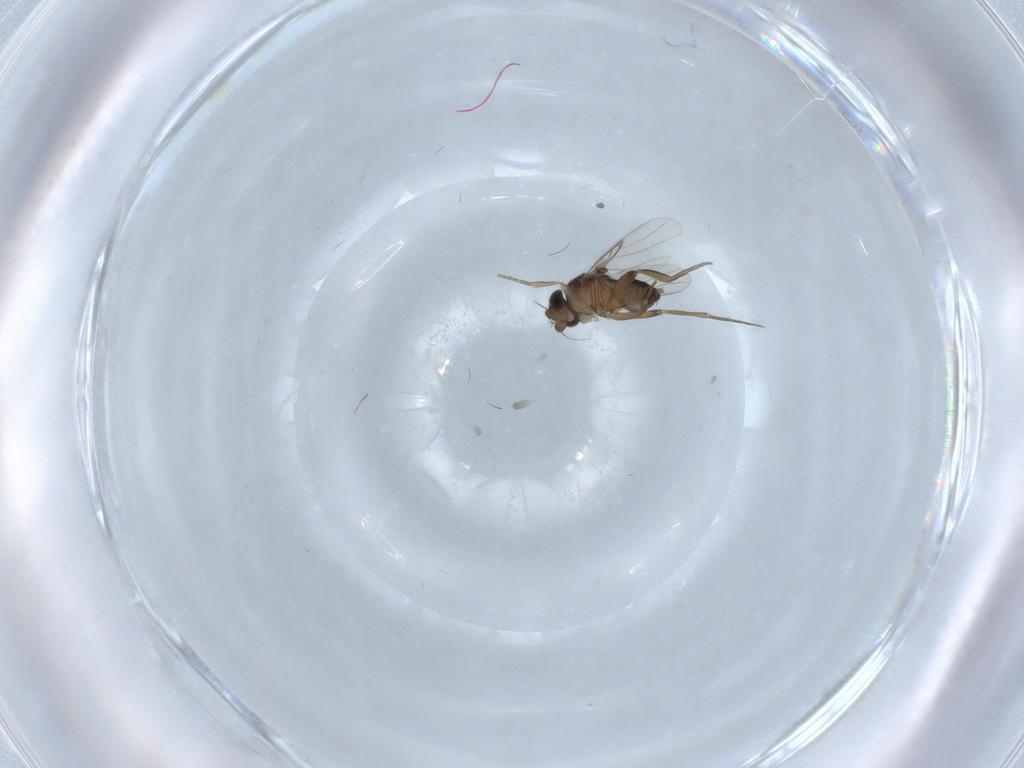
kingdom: Animalia
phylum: Arthropoda
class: Insecta
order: Diptera
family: Chironomidae
